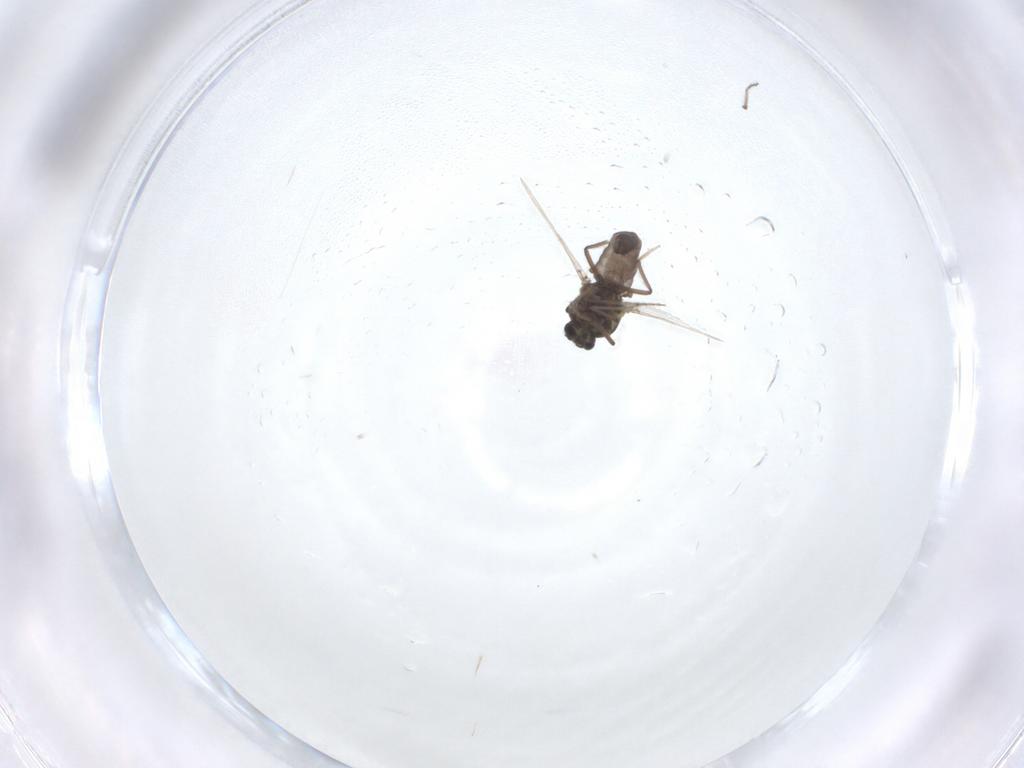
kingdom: Animalia
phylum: Arthropoda
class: Insecta
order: Diptera
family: Ceratopogonidae
